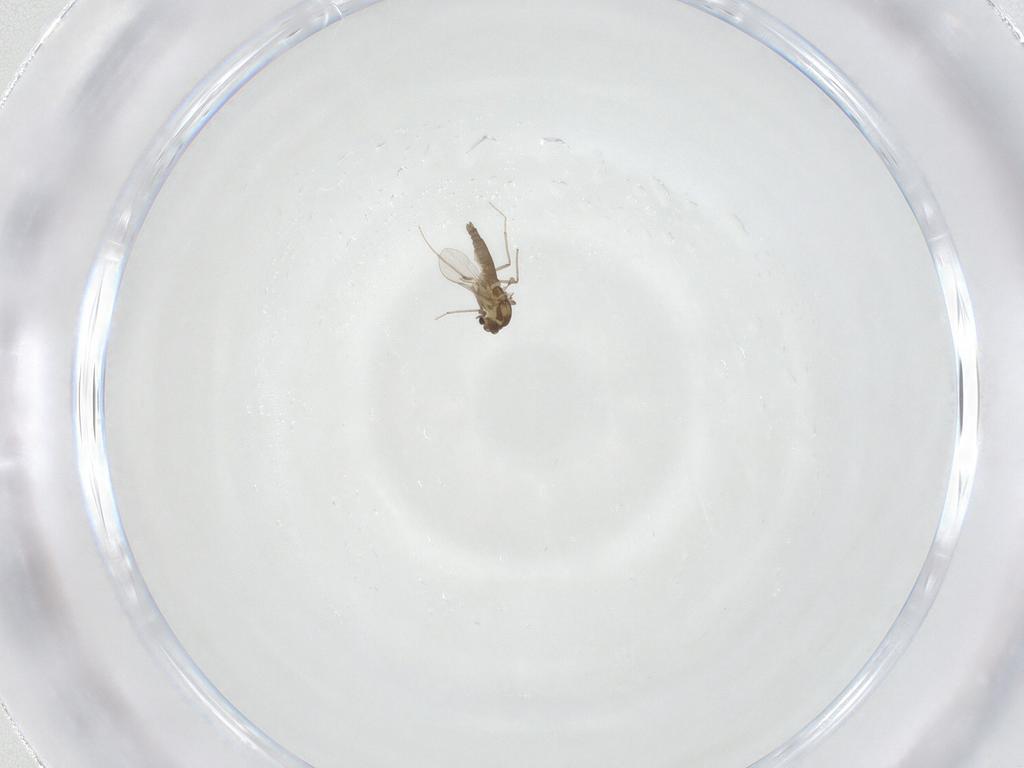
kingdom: Animalia
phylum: Arthropoda
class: Insecta
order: Diptera
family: Chironomidae
